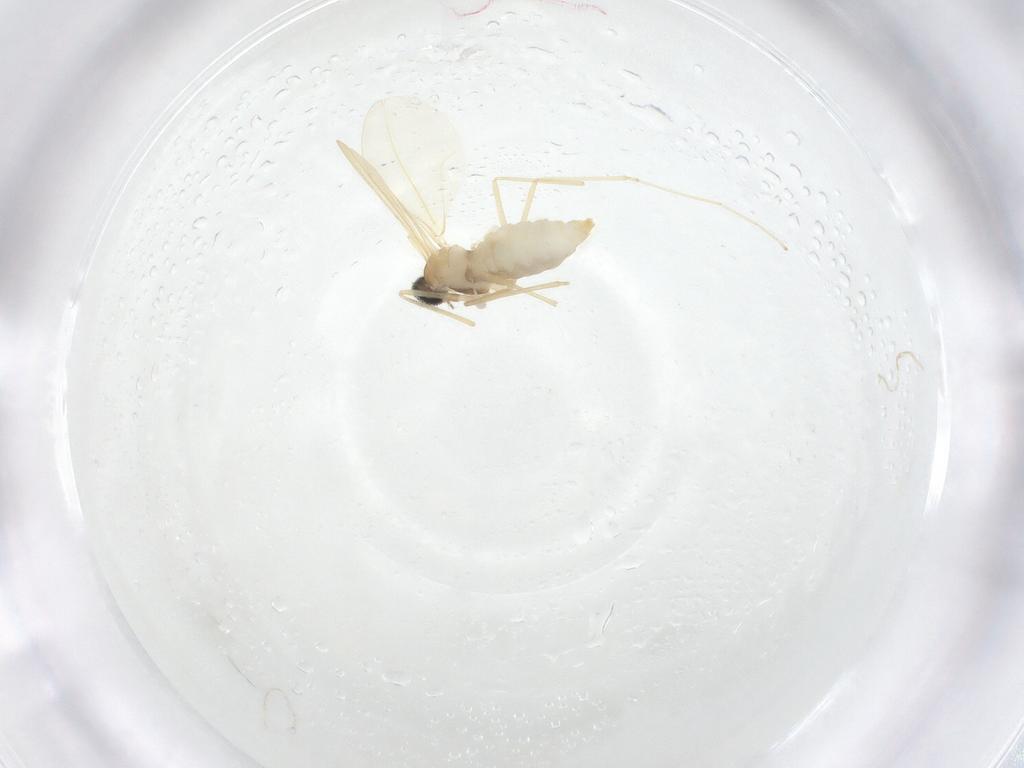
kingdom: Animalia
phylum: Arthropoda
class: Insecta
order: Diptera
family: Cecidomyiidae
